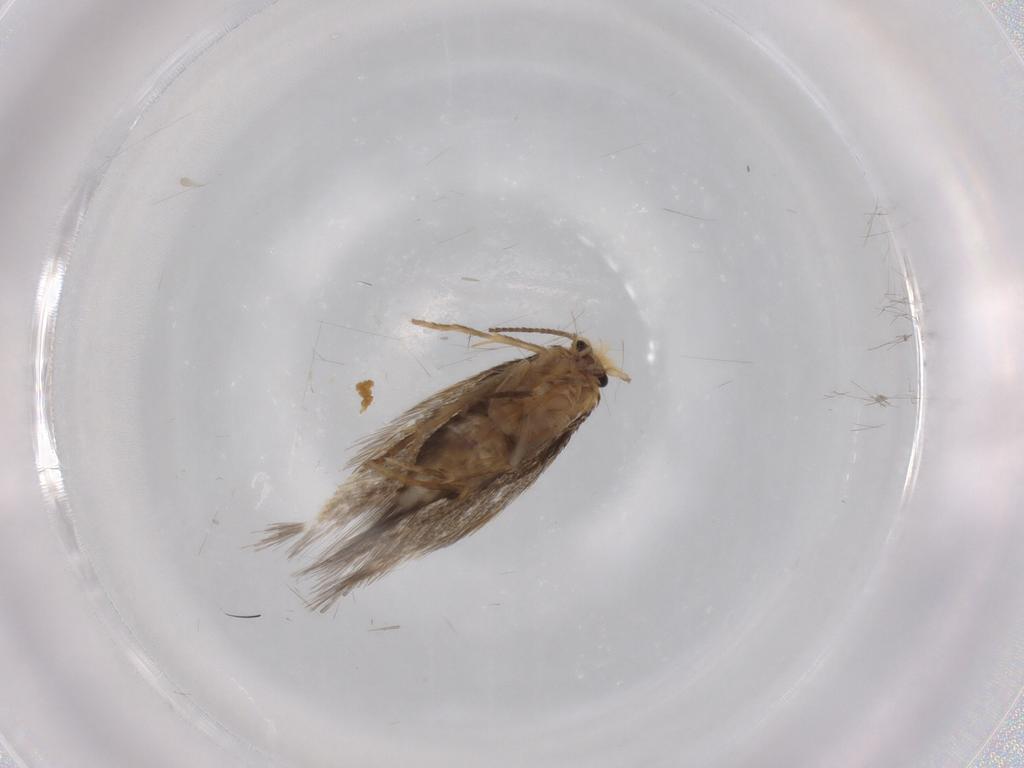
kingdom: Animalia
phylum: Arthropoda
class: Insecta
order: Lepidoptera
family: Nepticulidae
